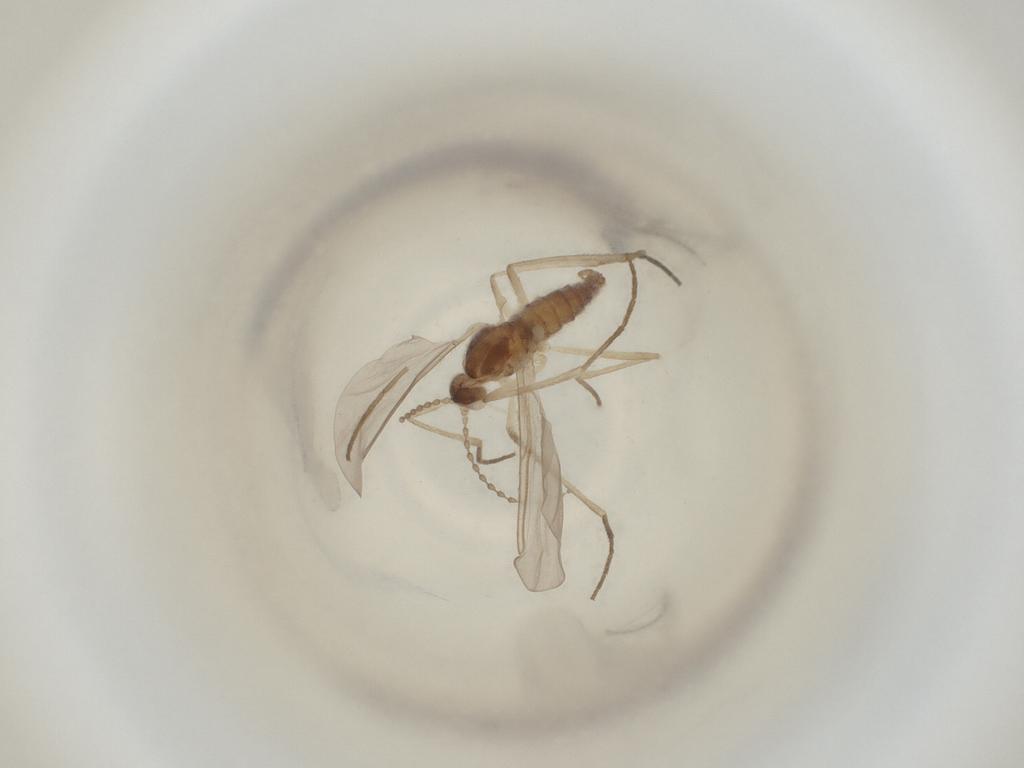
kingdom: Animalia
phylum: Arthropoda
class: Insecta
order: Diptera
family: Cecidomyiidae
